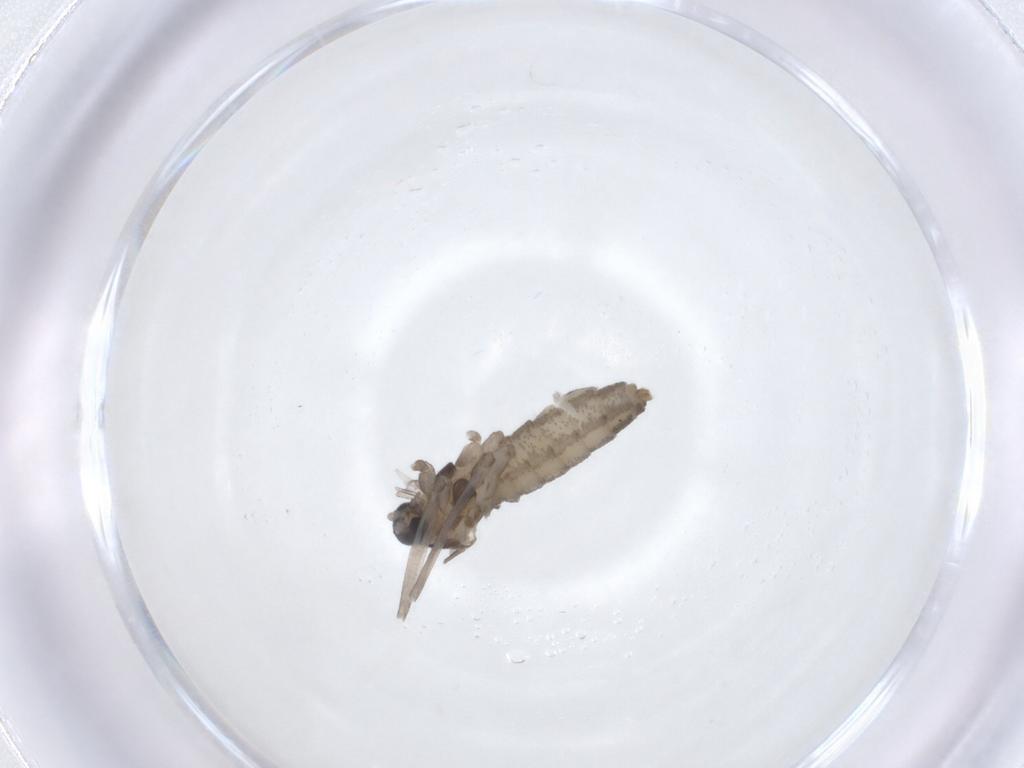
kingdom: Animalia
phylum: Arthropoda
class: Insecta
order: Diptera
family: Cecidomyiidae
